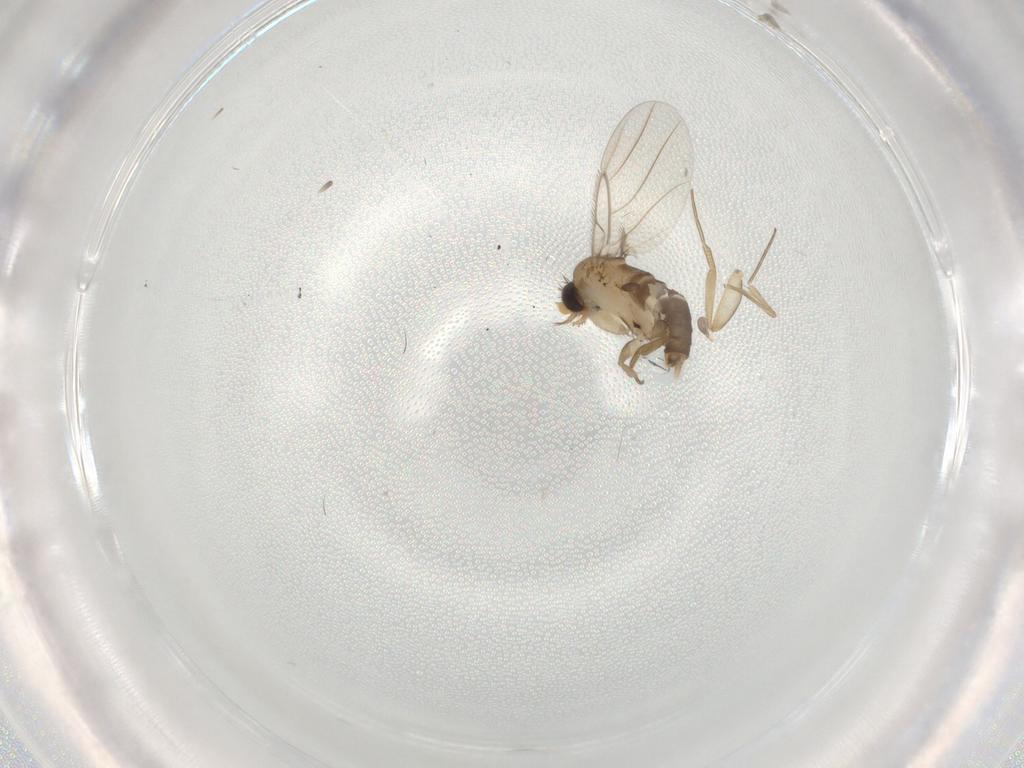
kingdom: Animalia
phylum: Arthropoda
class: Insecta
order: Diptera
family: Phoridae
